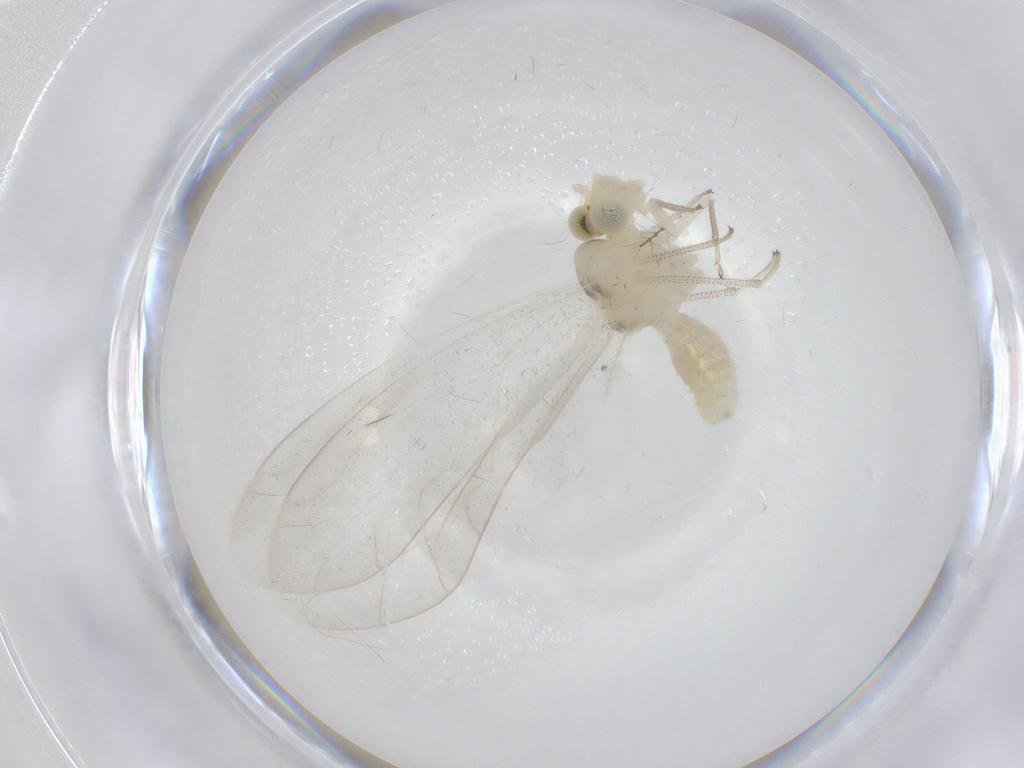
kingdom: Animalia
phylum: Arthropoda
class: Insecta
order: Psocodea
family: Caeciliusidae
